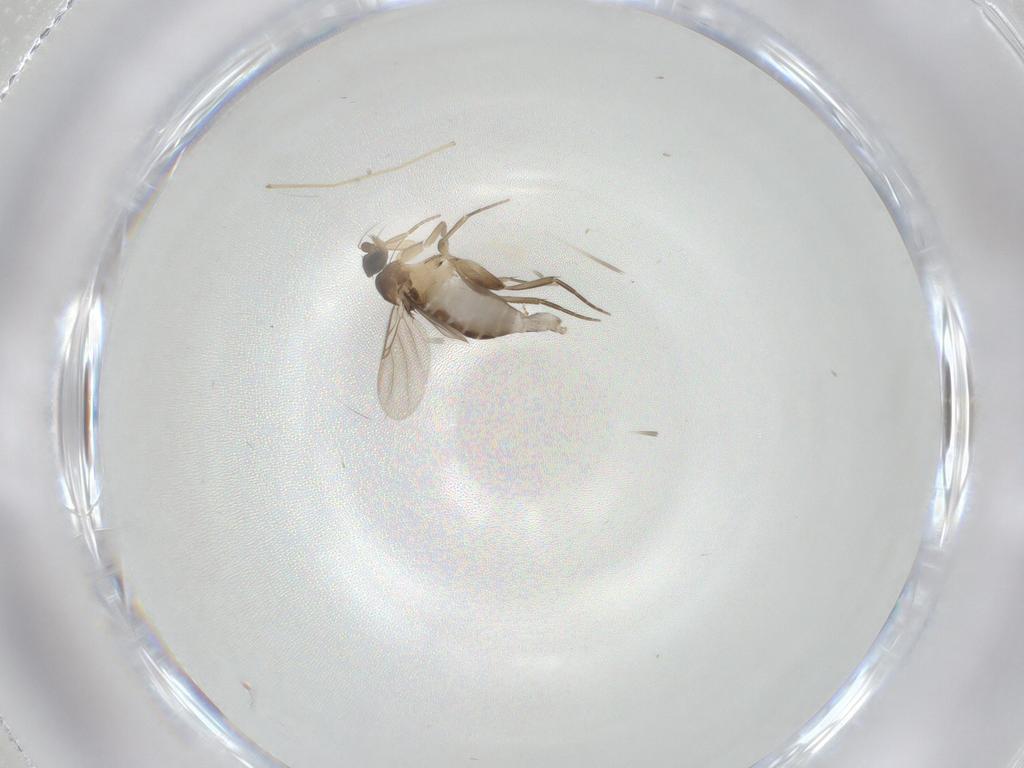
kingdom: Animalia
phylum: Arthropoda
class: Insecta
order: Diptera
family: Phoridae
